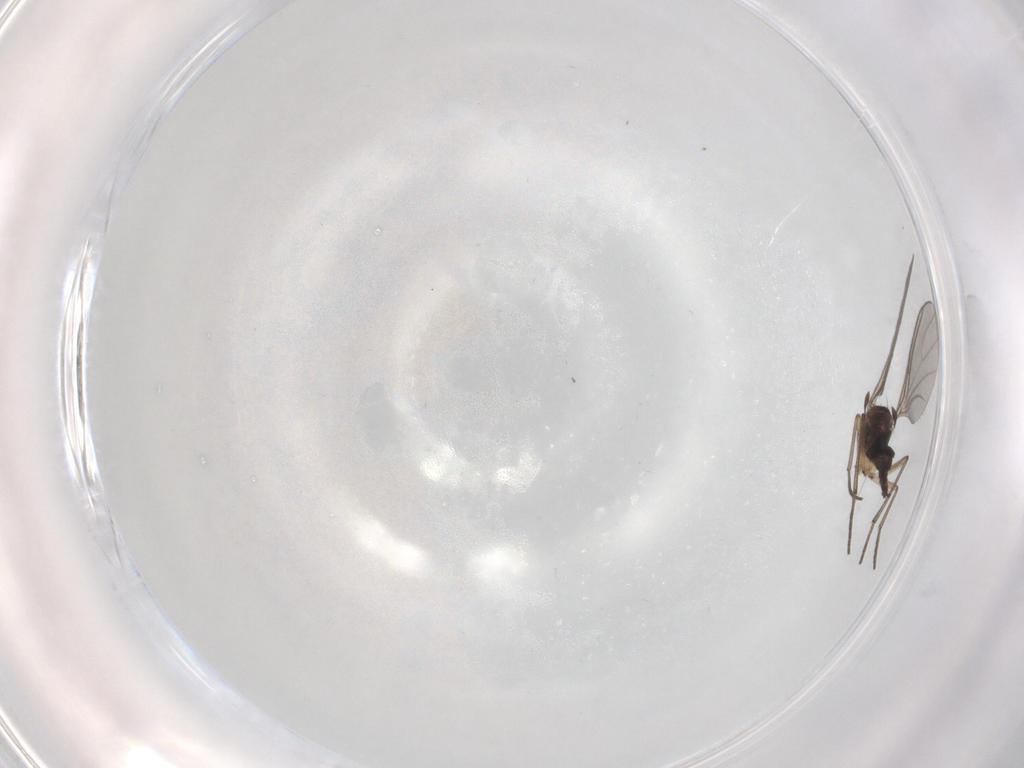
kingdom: Animalia
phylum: Arthropoda
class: Insecta
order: Diptera
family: Sciaridae
